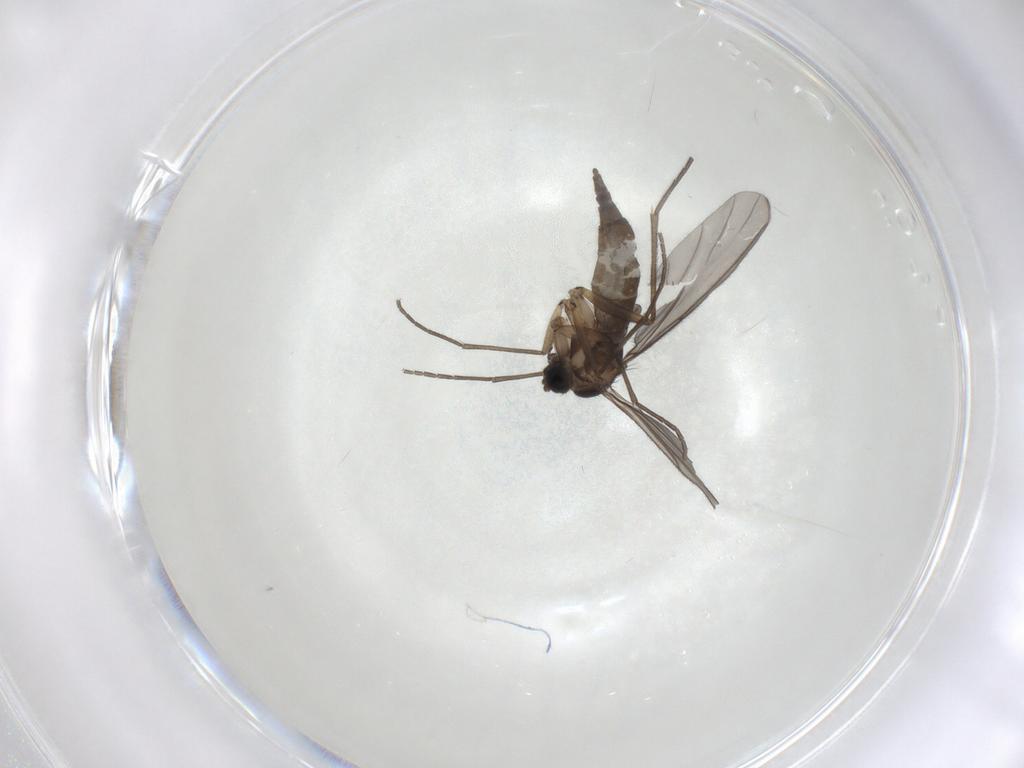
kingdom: Animalia
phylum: Arthropoda
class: Insecta
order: Diptera
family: Sciaridae
